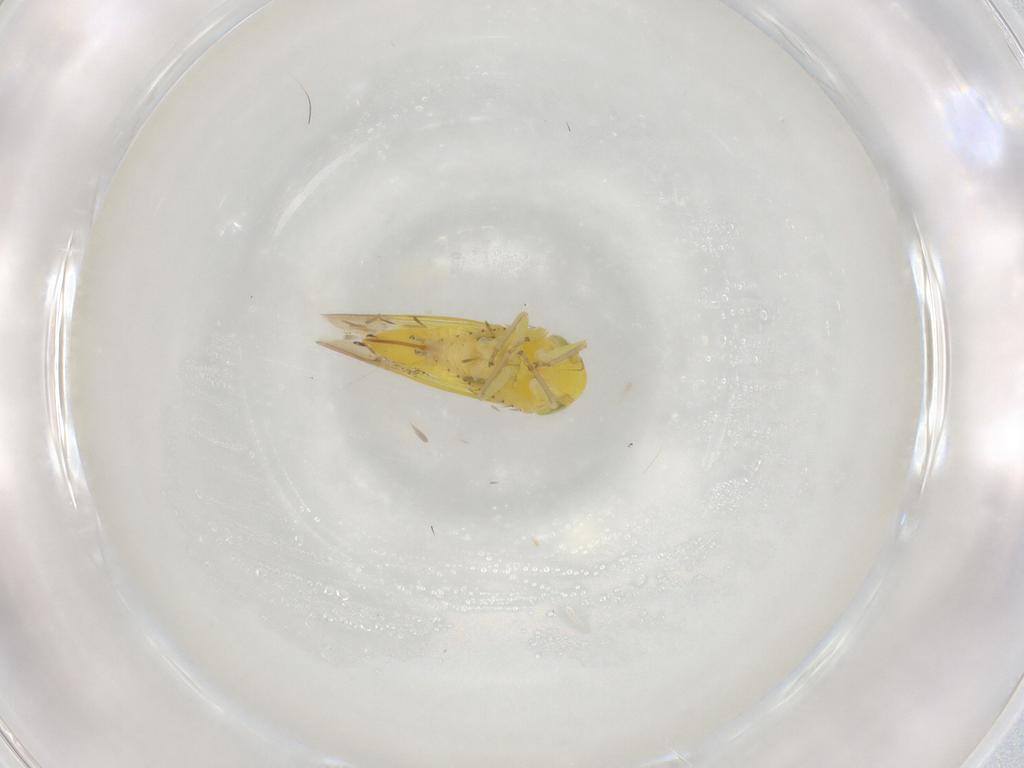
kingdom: Animalia
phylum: Arthropoda
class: Insecta
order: Hemiptera
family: Cicadellidae
